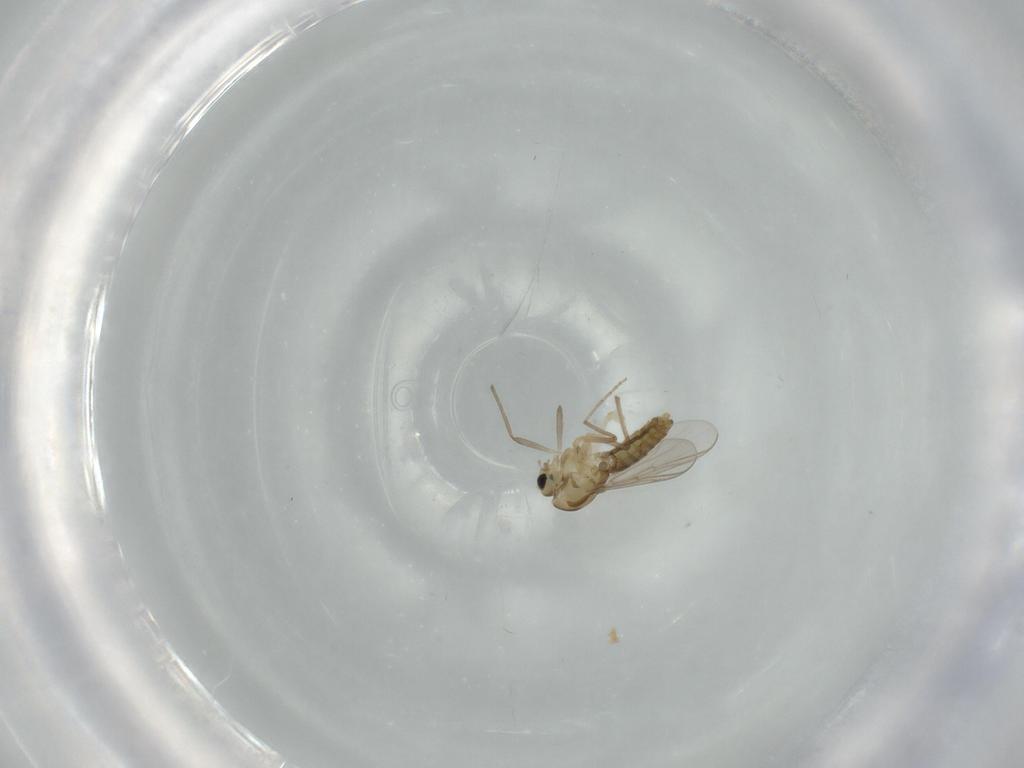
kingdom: Animalia
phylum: Arthropoda
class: Insecta
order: Diptera
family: Chironomidae
